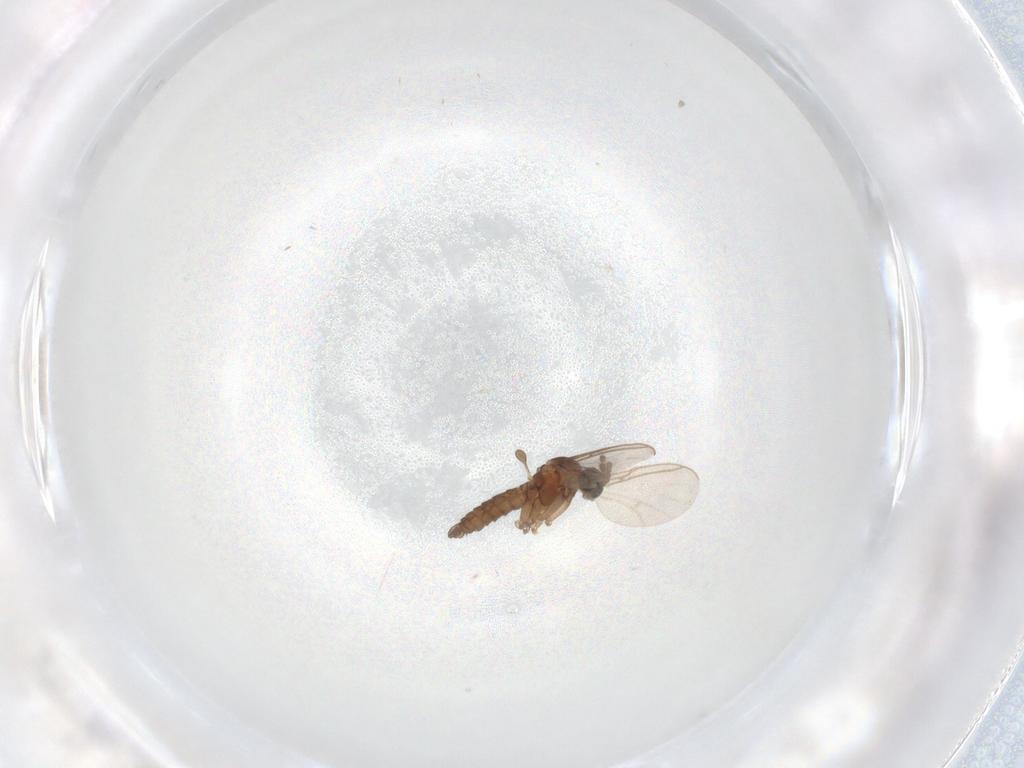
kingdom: Animalia
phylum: Arthropoda
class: Insecta
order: Diptera
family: Sciaridae
